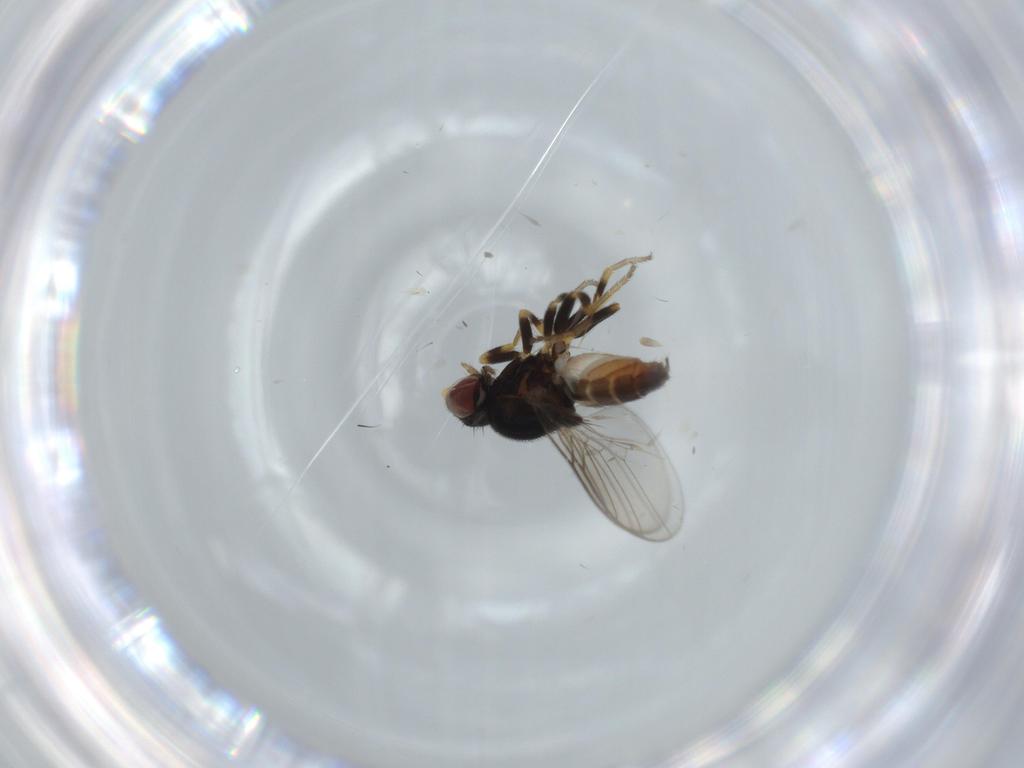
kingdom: Animalia
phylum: Arthropoda
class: Insecta
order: Diptera
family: Chloropidae
